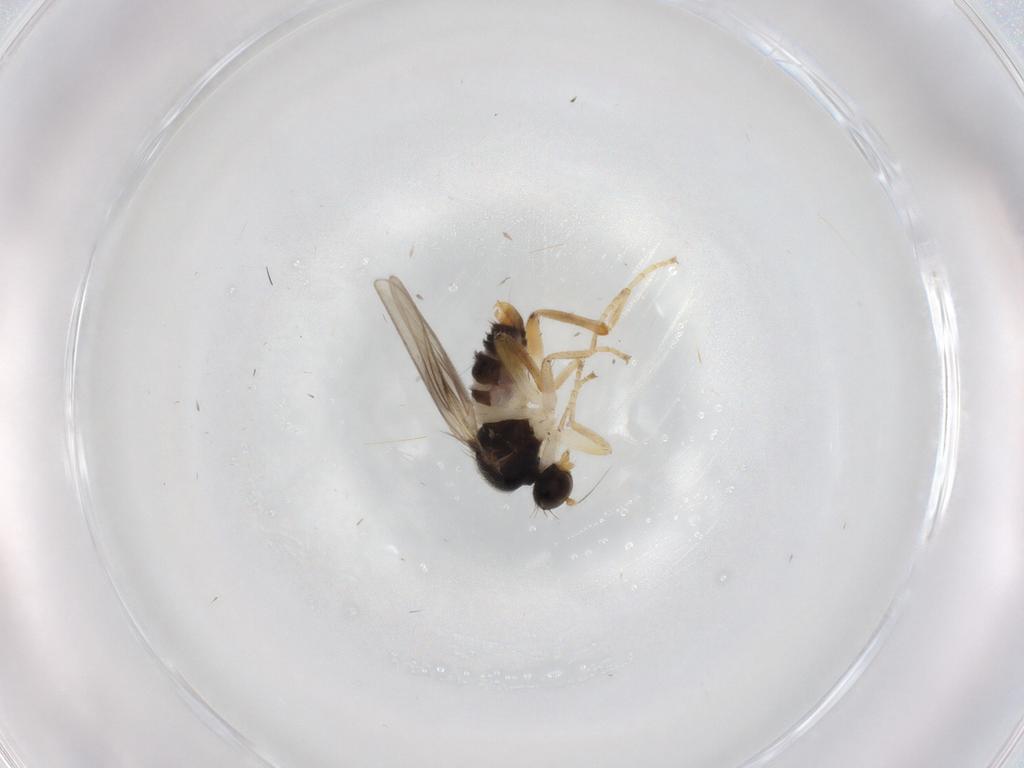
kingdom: Animalia
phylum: Arthropoda
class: Insecta
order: Diptera
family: Hybotidae
